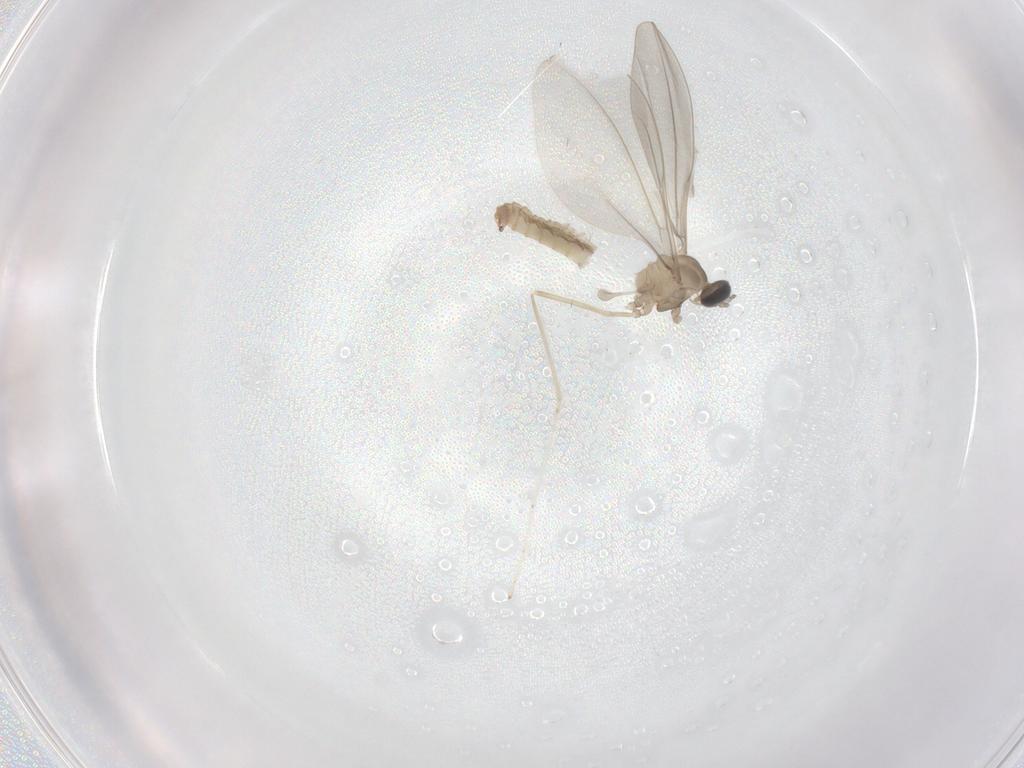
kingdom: Animalia
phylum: Arthropoda
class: Insecta
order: Diptera
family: Cecidomyiidae
